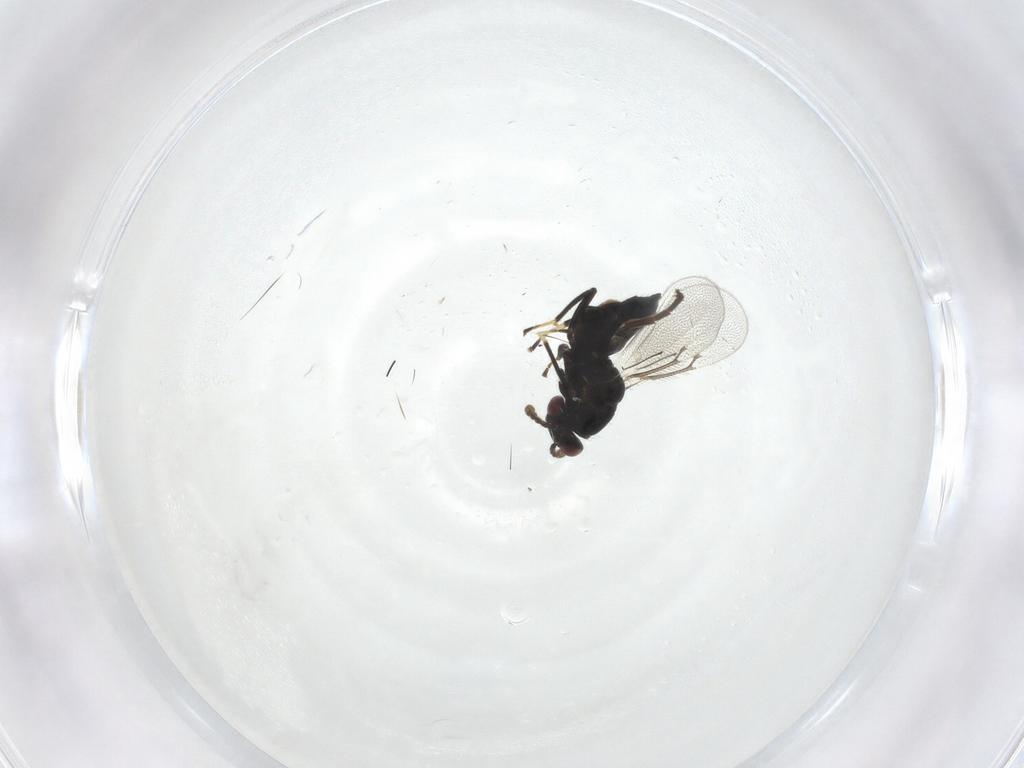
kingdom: Animalia
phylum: Arthropoda
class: Insecta
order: Hymenoptera
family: Eulophidae
